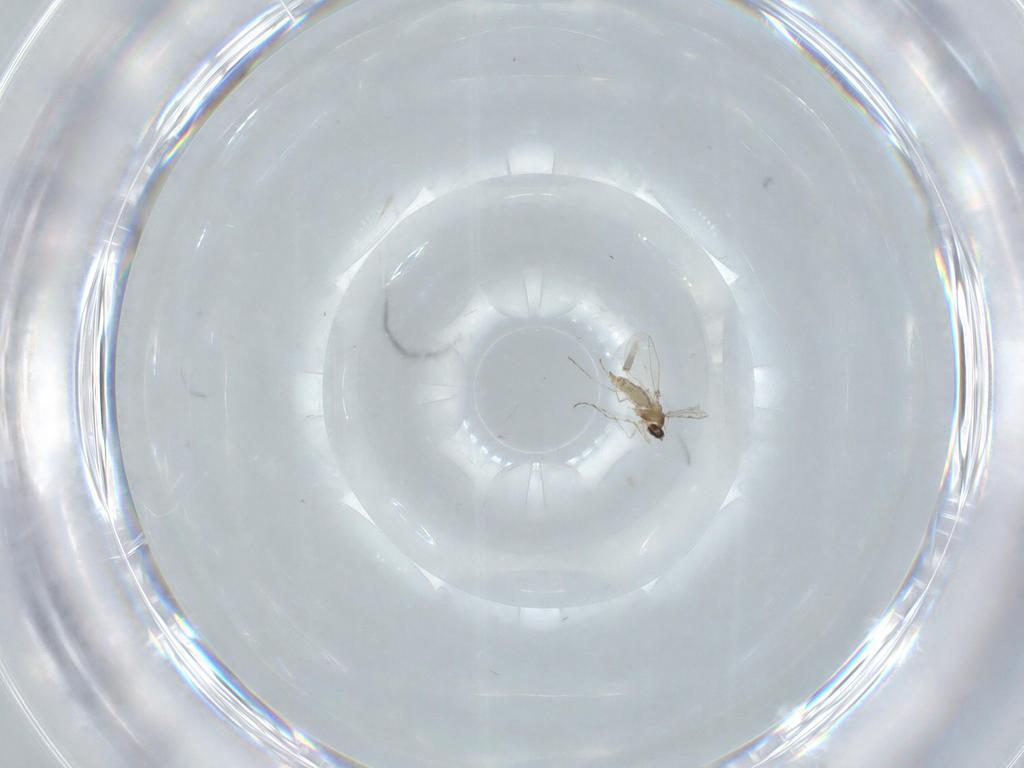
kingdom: Animalia
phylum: Arthropoda
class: Insecta
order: Diptera
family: Cecidomyiidae
